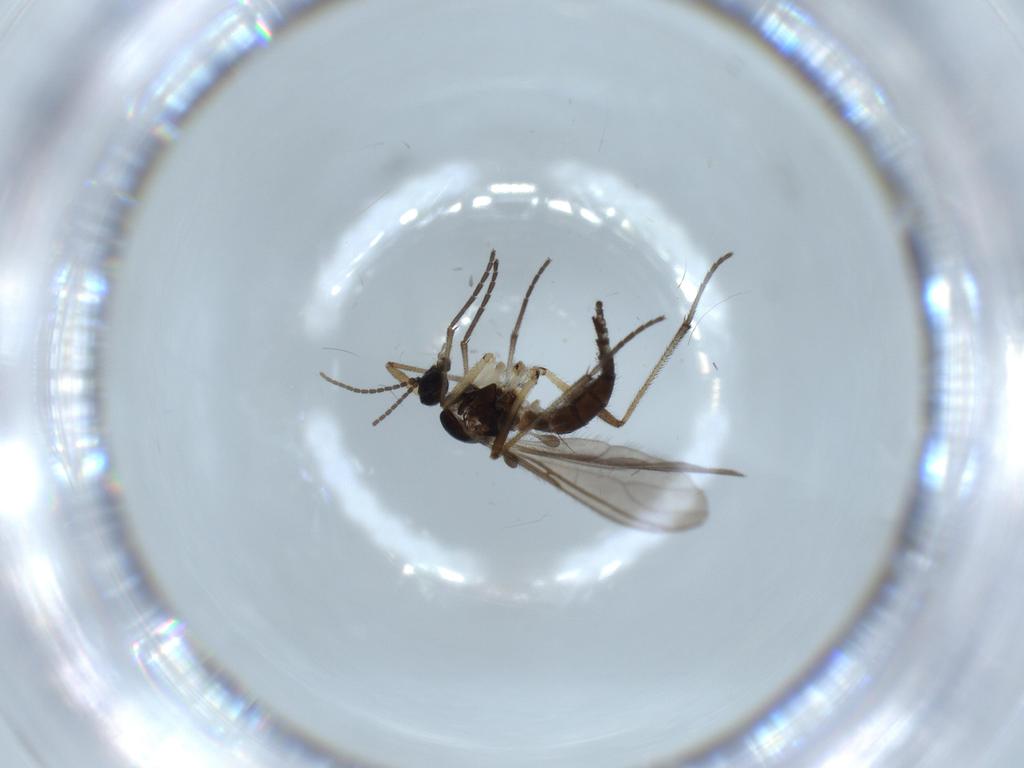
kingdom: Animalia
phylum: Arthropoda
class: Insecta
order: Diptera
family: Sciaridae
